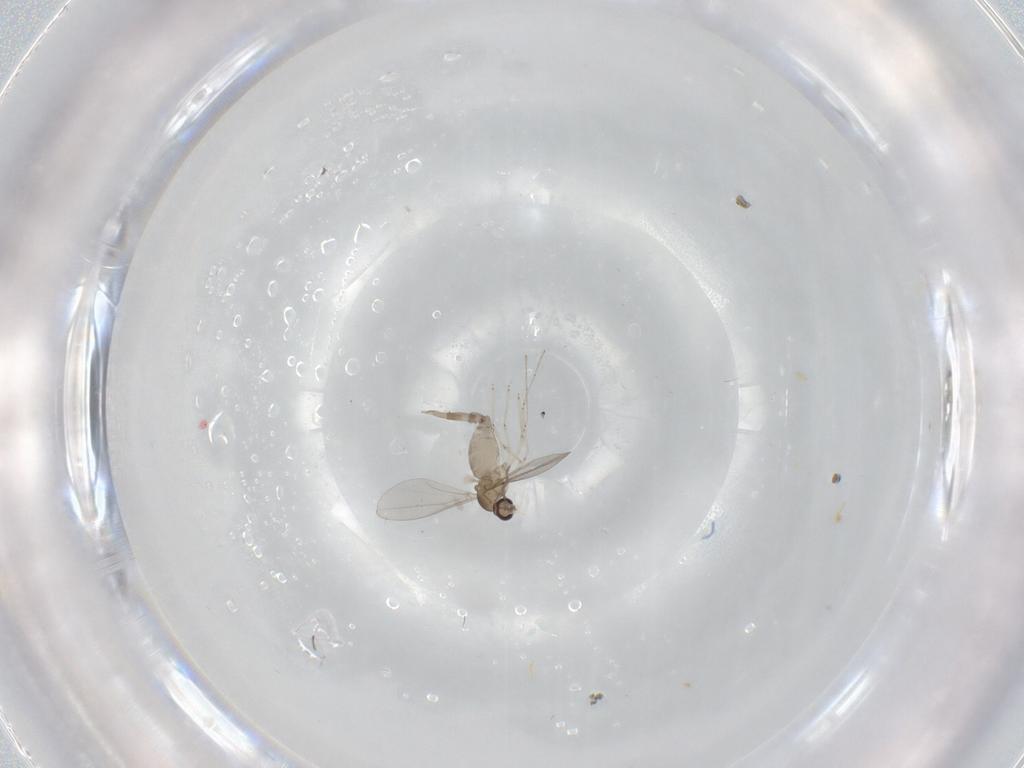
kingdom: Animalia
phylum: Arthropoda
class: Insecta
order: Diptera
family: Cecidomyiidae
